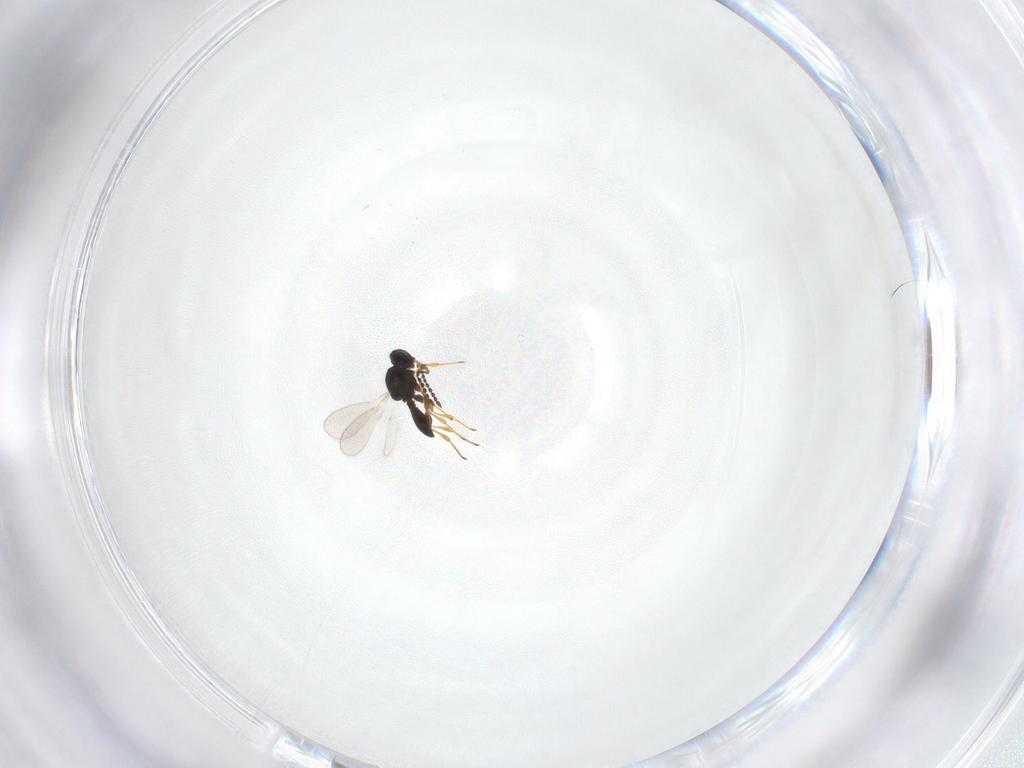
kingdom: Animalia
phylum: Arthropoda
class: Insecta
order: Hymenoptera
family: Platygastridae
